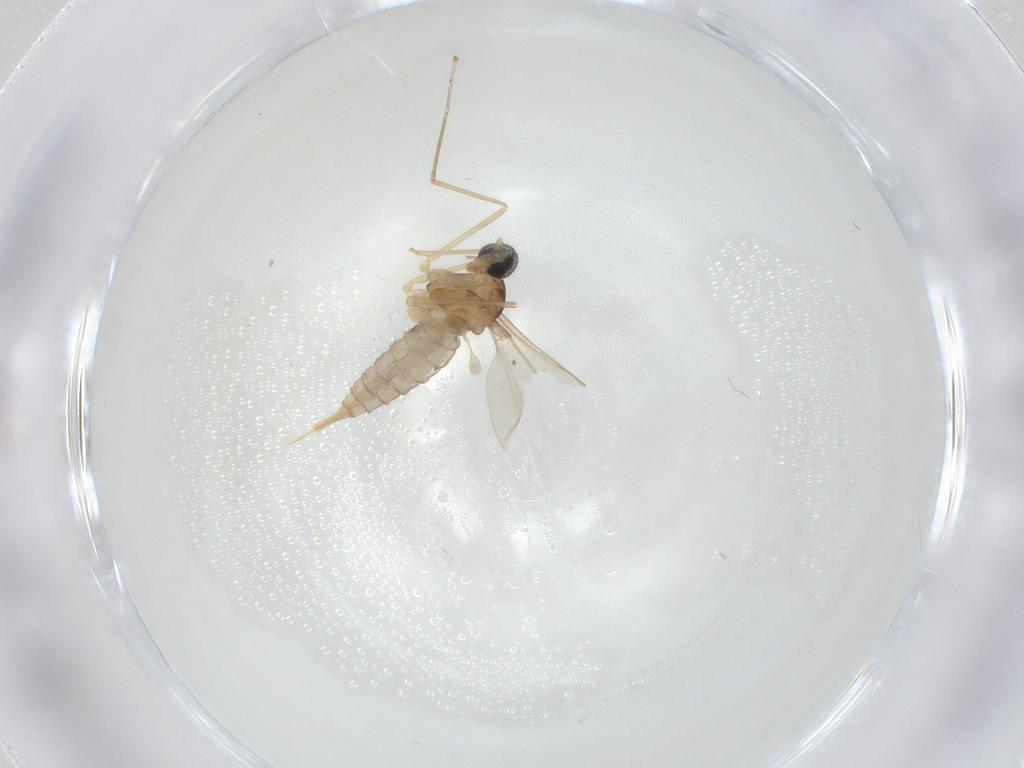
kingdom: Animalia
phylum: Arthropoda
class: Insecta
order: Diptera
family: Cecidomyiidae
